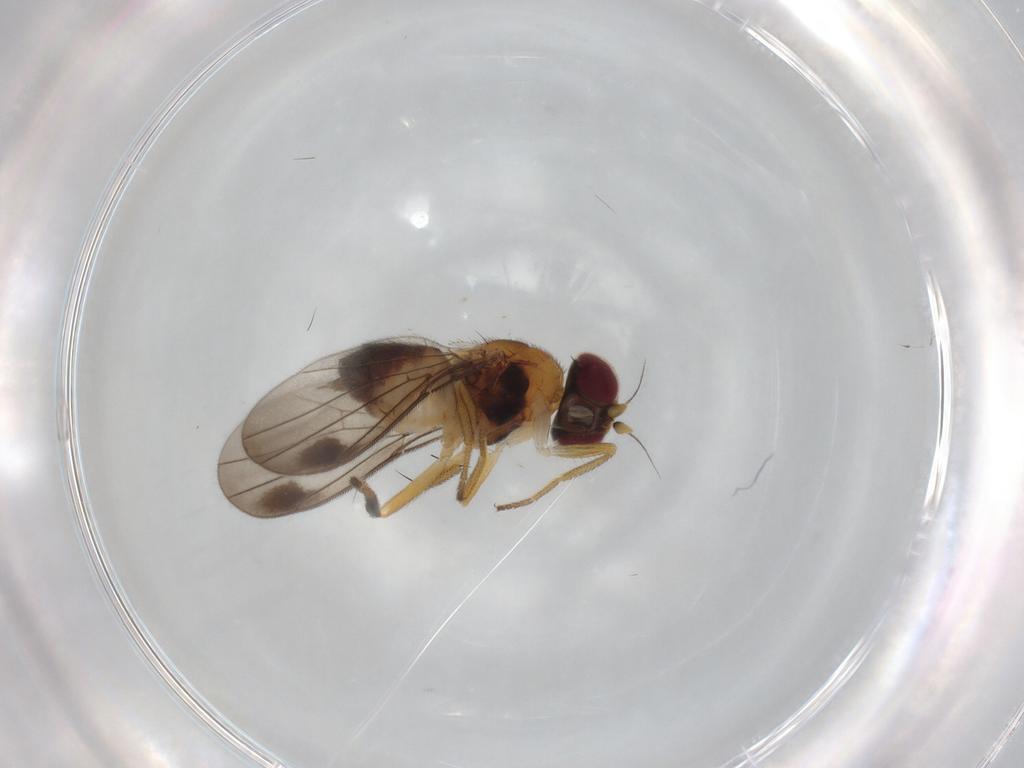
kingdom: Animalia
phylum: Arthropoda
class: Insecta
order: Diptera
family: Chloropidae
